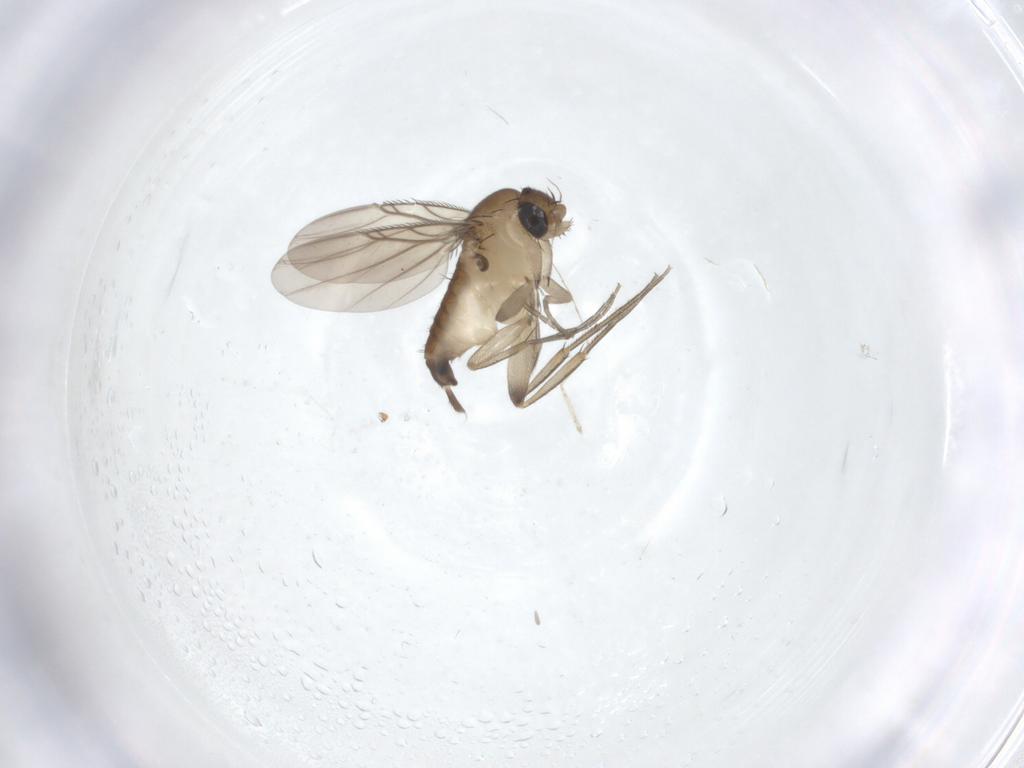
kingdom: Animalia
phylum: Arthropoda
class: Insecta
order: Diptera
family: Phoridae
